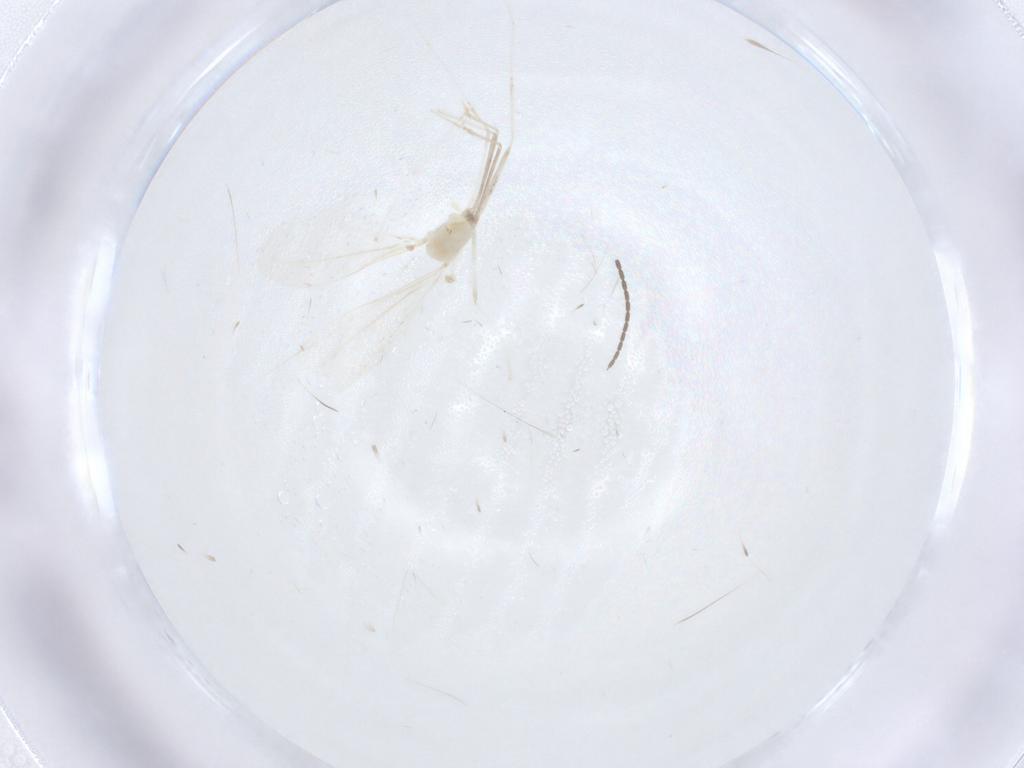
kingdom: Animalia
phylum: Arthropoda
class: Insecta
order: Diptera
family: Cecidomyiidae
